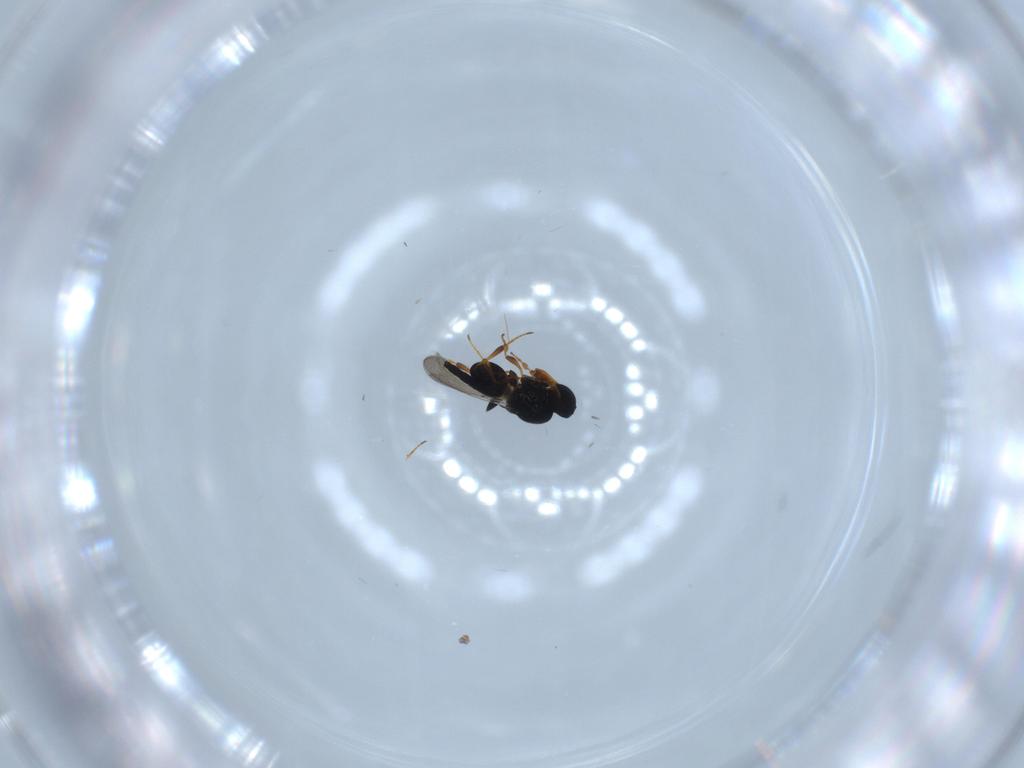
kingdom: Animalia
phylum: Arthropoda
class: Insecta
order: Hymenoptera
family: Platygastridae
